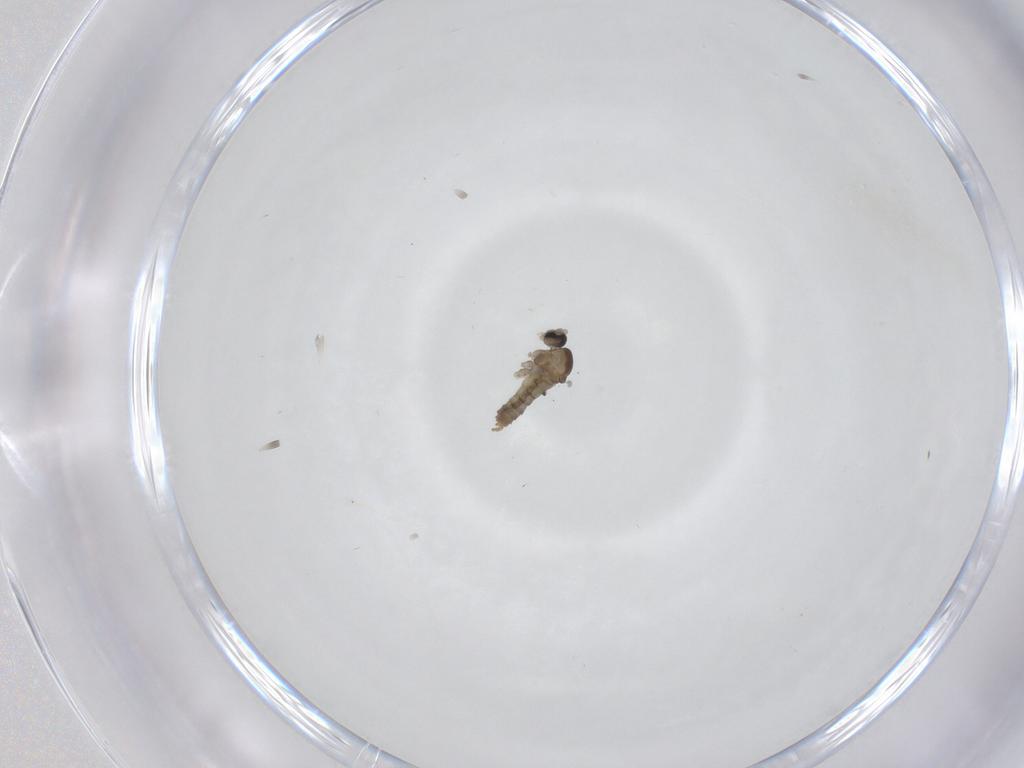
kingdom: Animalia
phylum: Arthropoda
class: Insecta
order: Diptera
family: Cecidomyiidae
